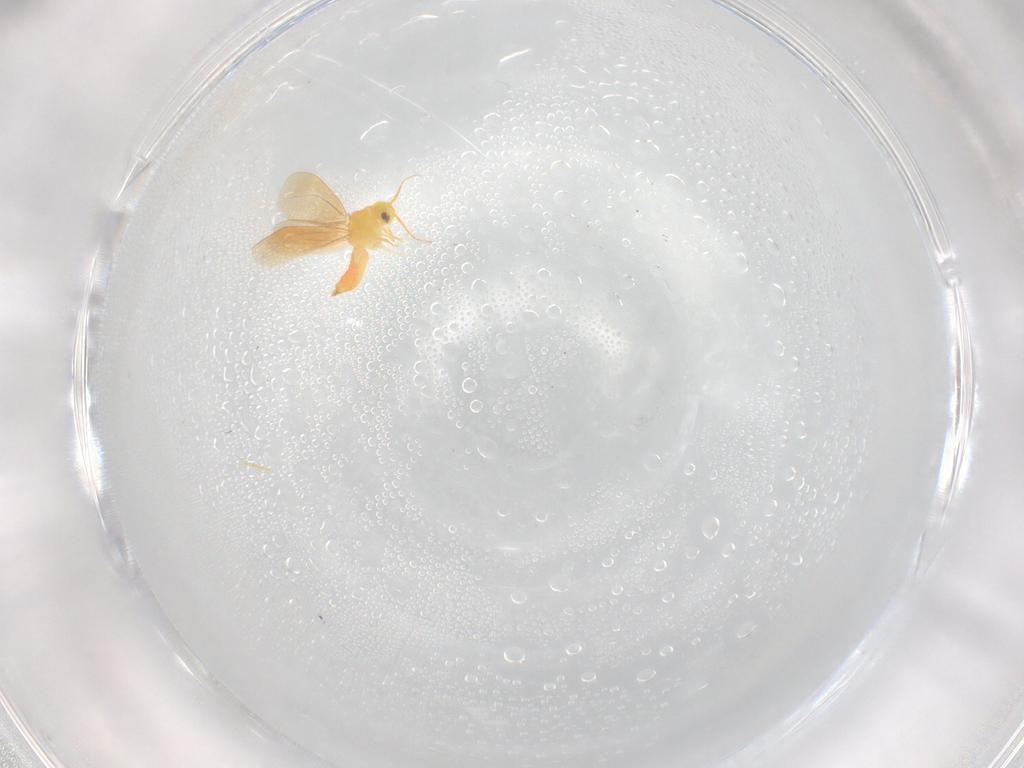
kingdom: Animalia
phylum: Arthropoda
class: Insecta
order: Hemiptera
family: Aleyrodidae
